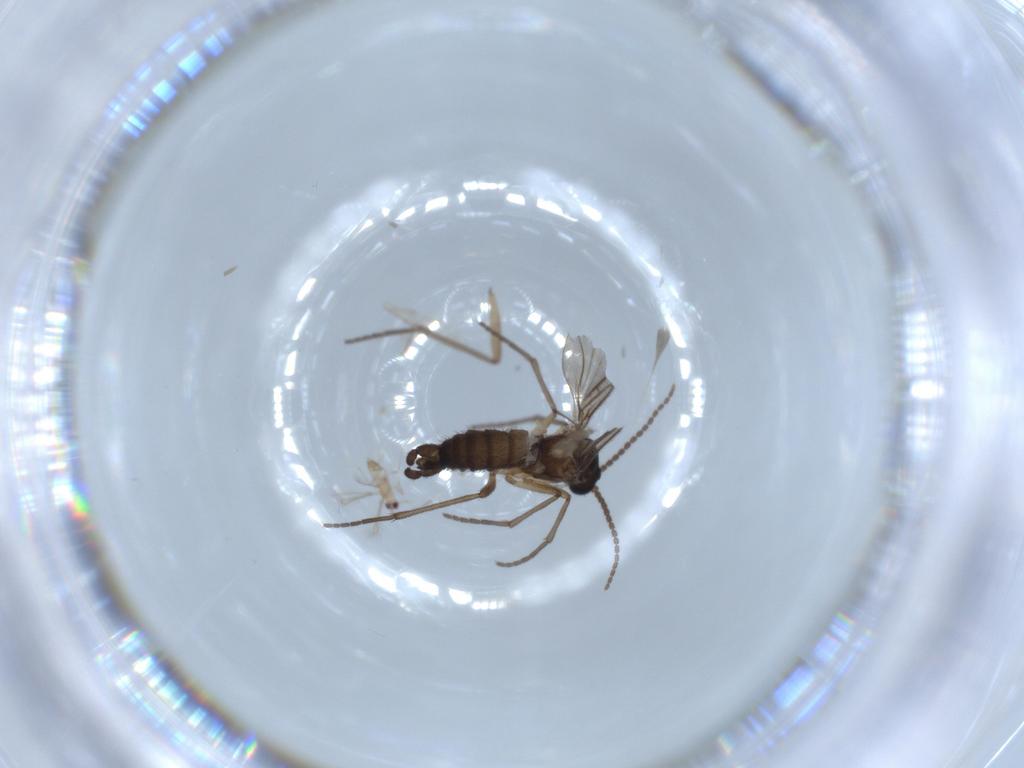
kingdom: Animalia
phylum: Arthropoda
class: Insecta
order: Diptera
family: Sciaridae
